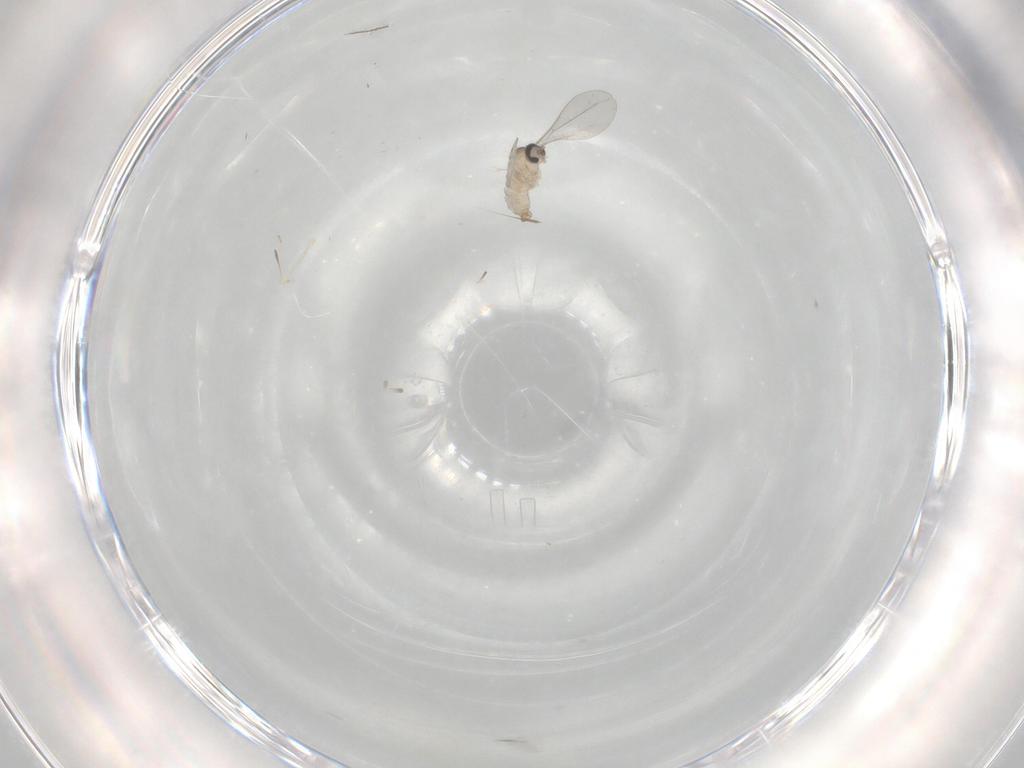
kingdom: Animalia
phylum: Arthropoda
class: Insecta
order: Diptera
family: Cecidomyiidae
